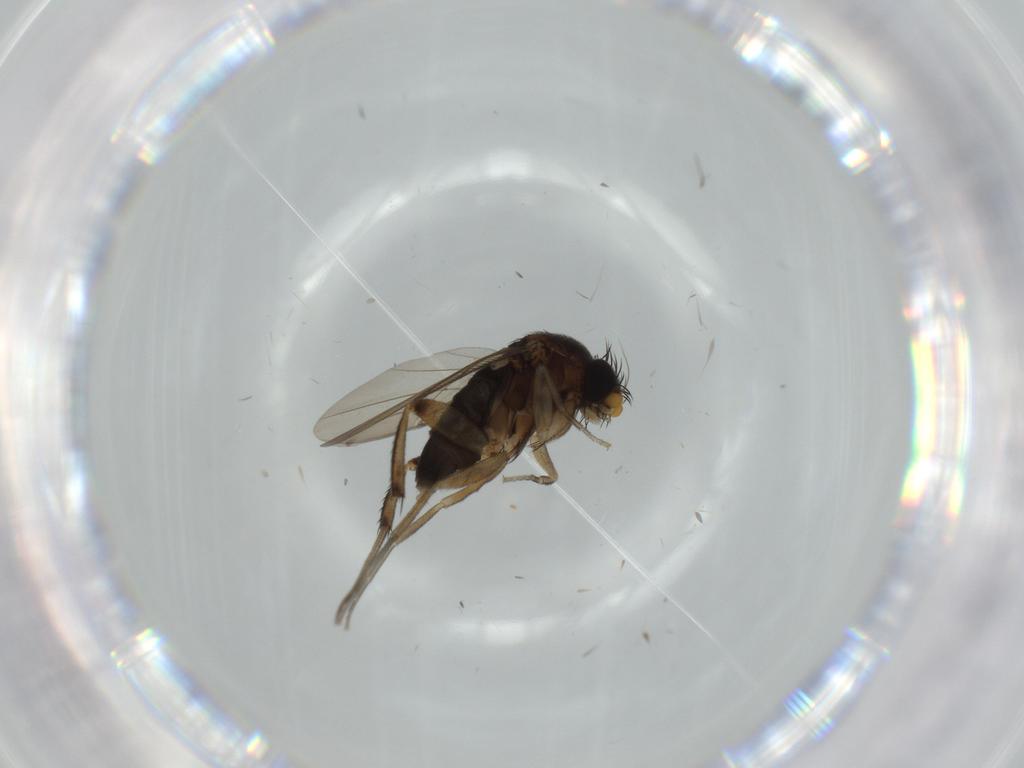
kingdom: Animalia
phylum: Arthropoda
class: Insecta
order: Diptera
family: Phoridae
